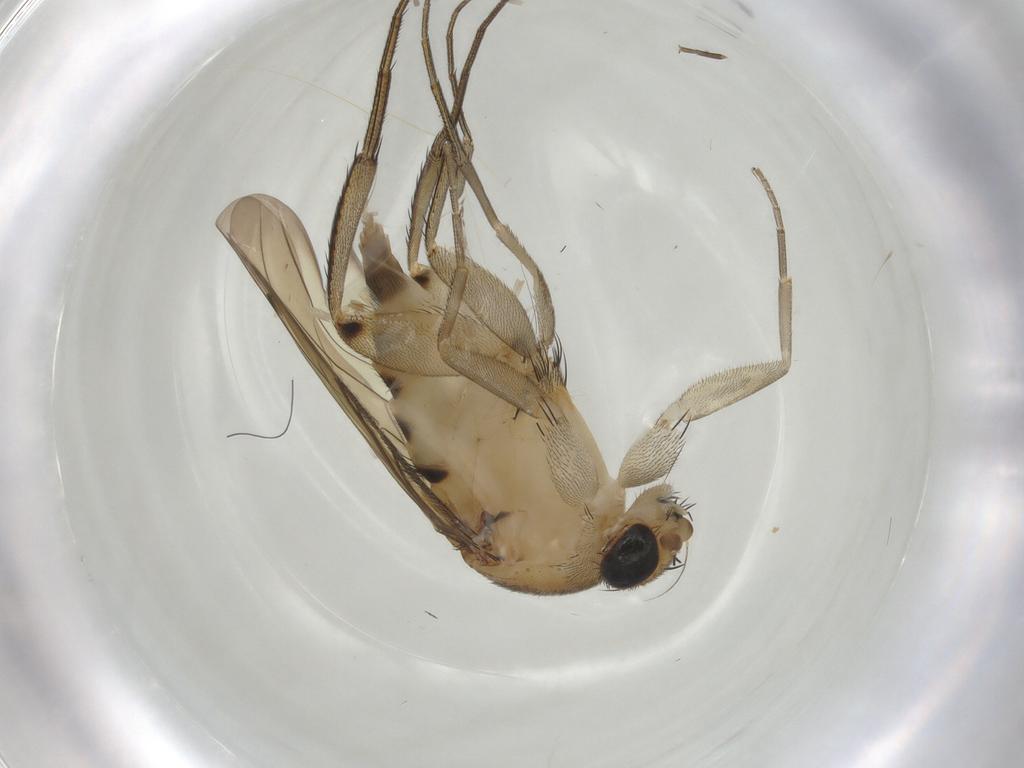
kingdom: Animalia
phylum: Arthropoda
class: Insecta
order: Diptera
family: Phoridae
